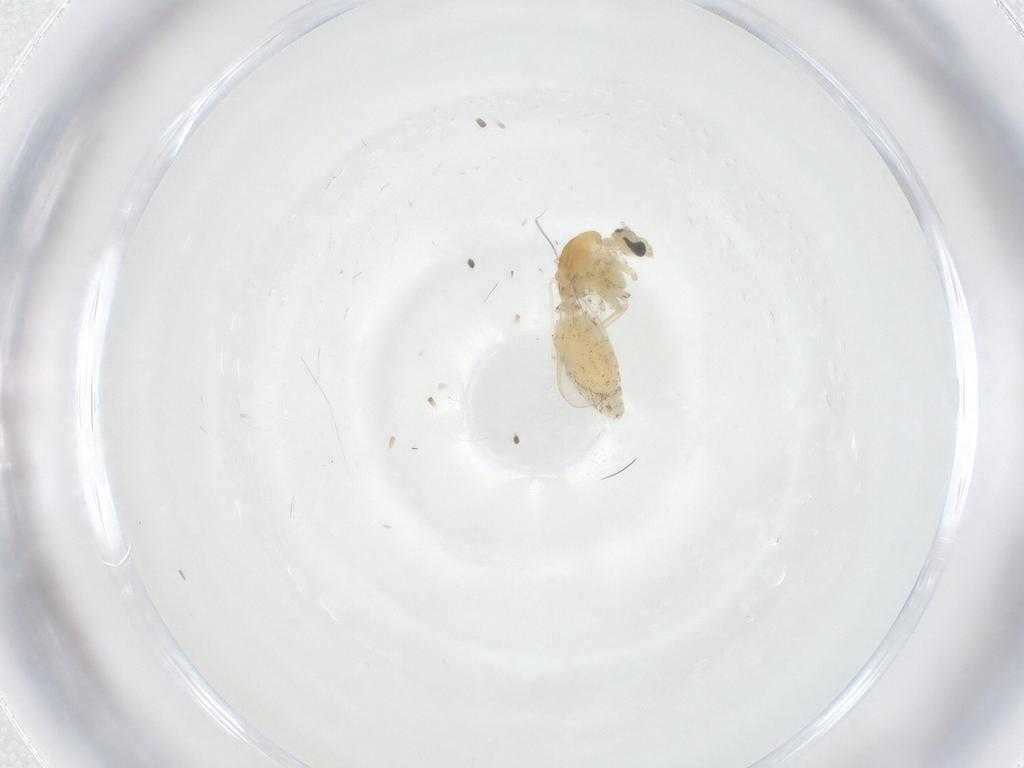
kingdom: Animalia
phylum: Arthropoda
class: Insecta
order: Diptera
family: Chironomidae
